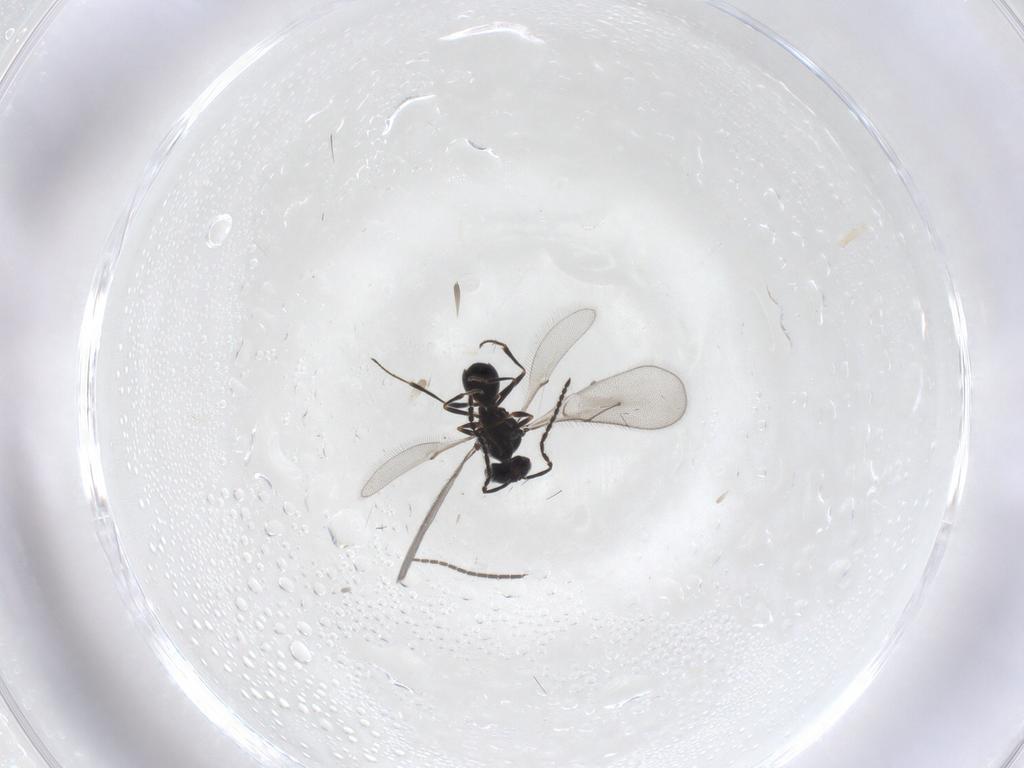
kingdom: Animalia
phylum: Arthropoda
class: Insecta
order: Hymenoptera
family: Scelionidae
